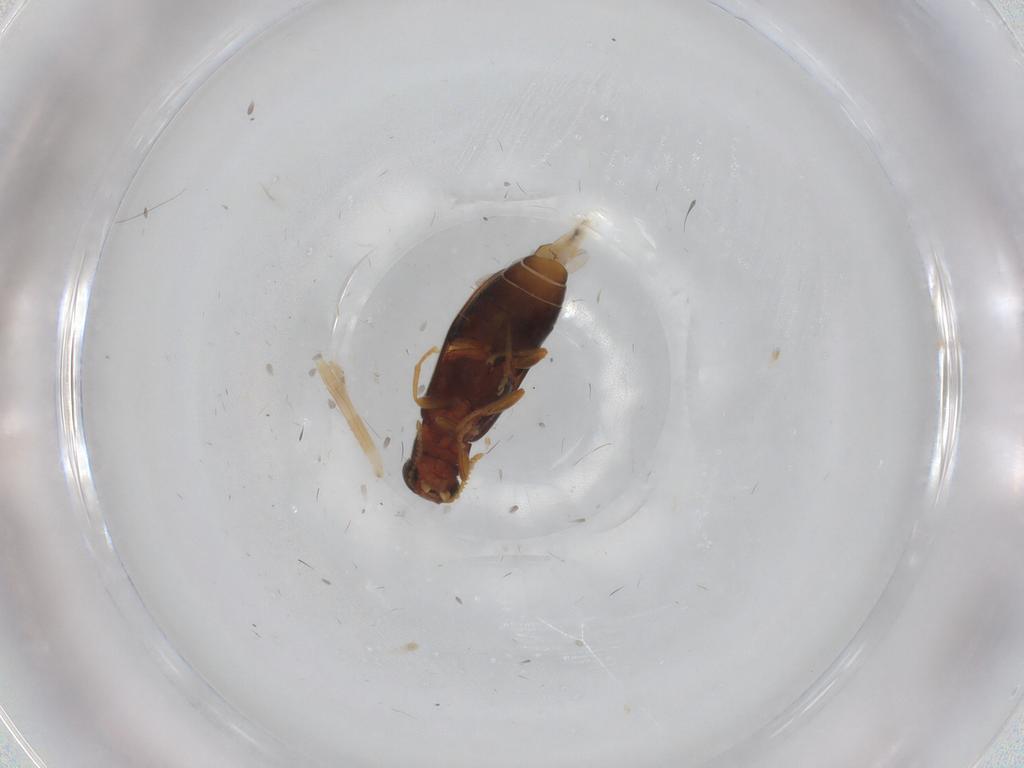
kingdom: Animalia
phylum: Arthropoda
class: Insecta
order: Coleoptera
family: Mycteridae
